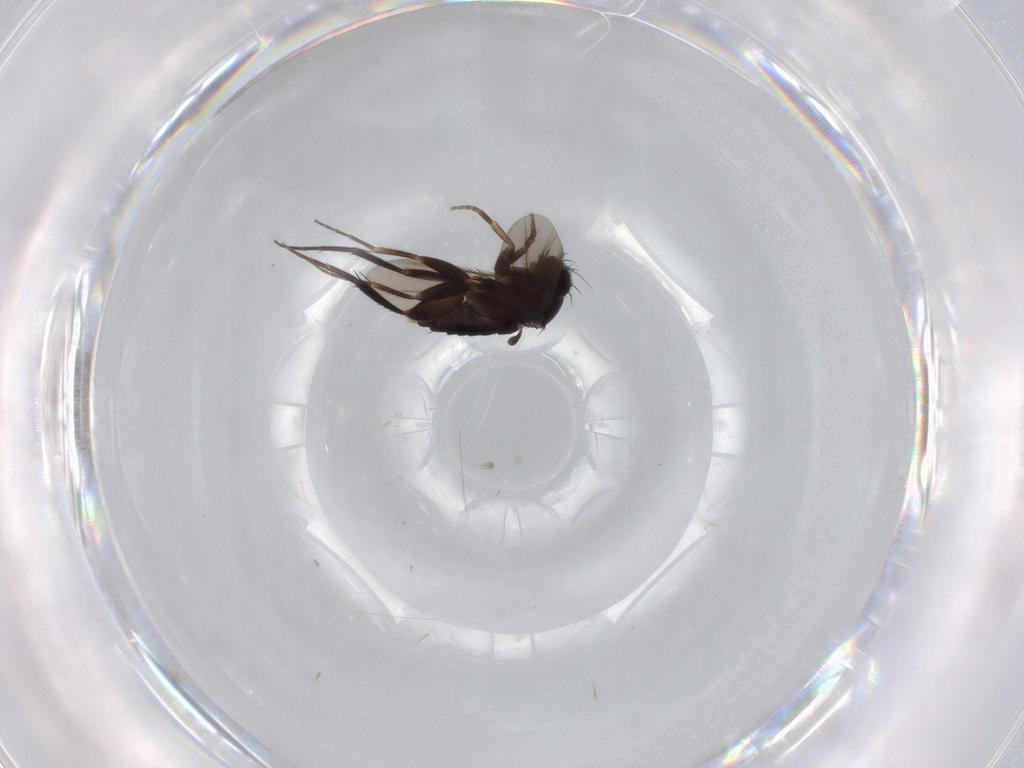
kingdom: Animalia
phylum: Arthropoda
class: Insecta
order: Diptera
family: Phoridae
